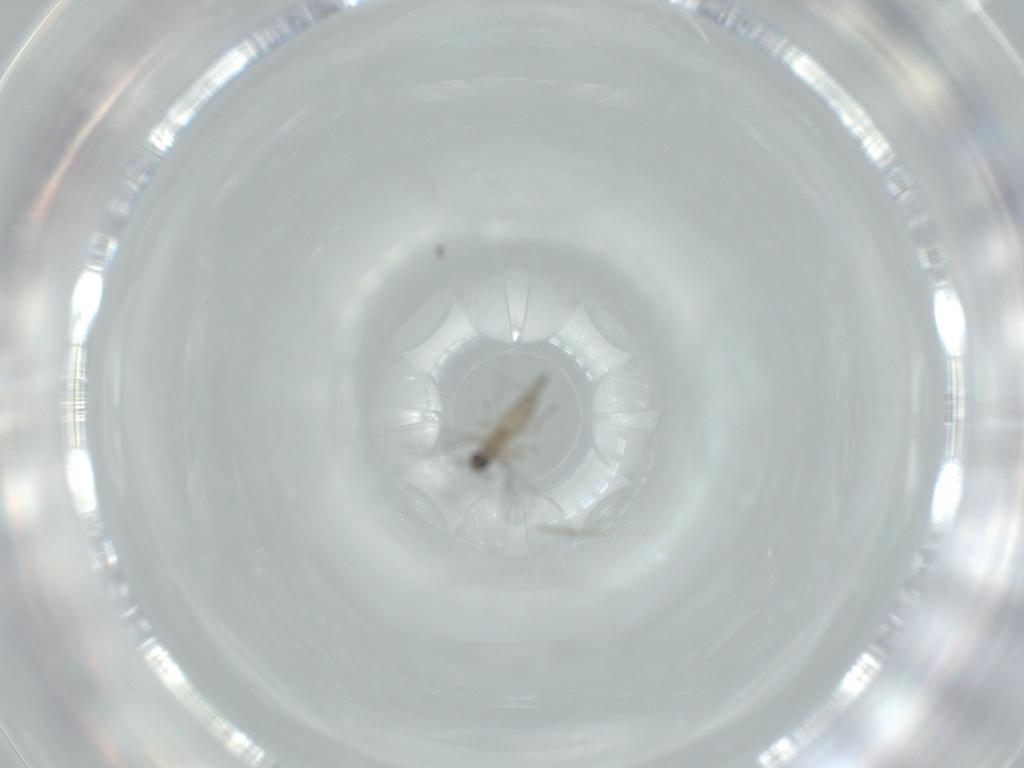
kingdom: Animalia
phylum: Arthropoda
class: Insecta
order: Diptera
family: Cecidomyiidae
